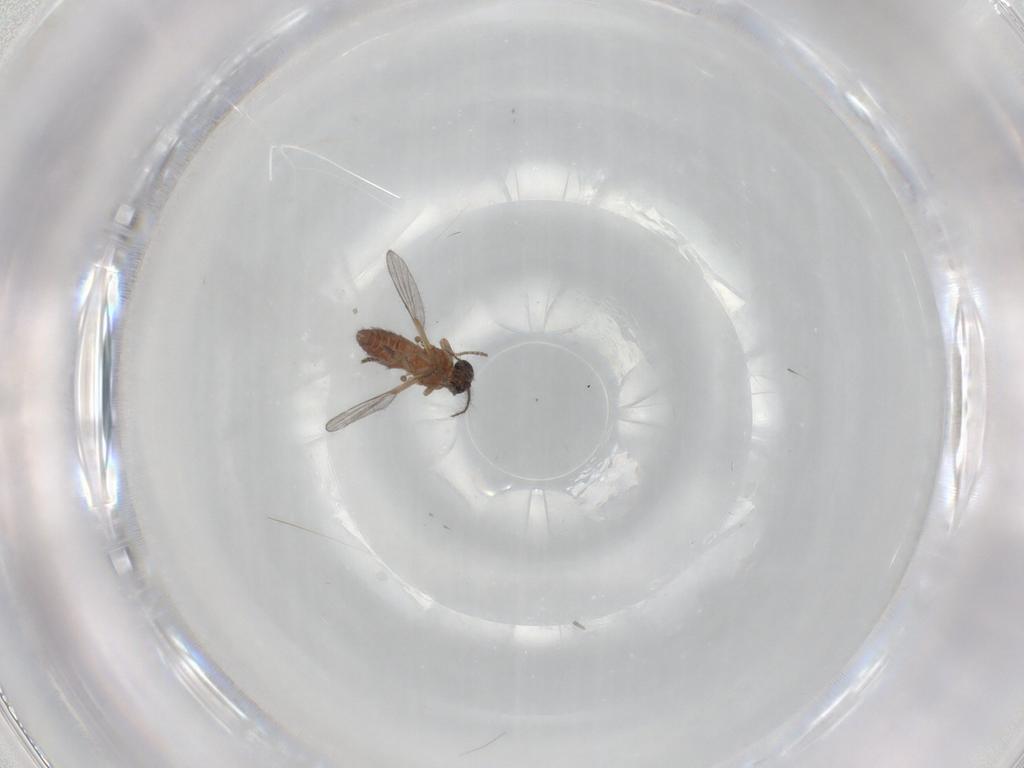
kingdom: Animalia
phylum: Arthropoda
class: Insecta
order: Diptera
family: Ceratopogonidae
